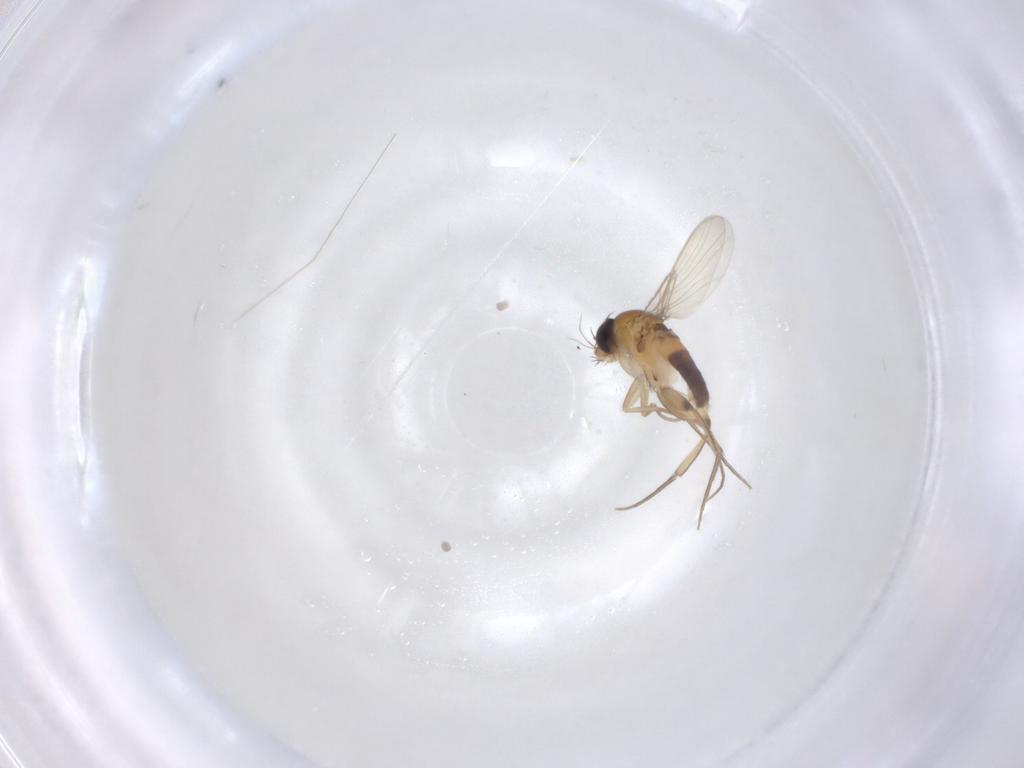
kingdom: Animalia
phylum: Arthropoda
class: Insecta
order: Diptera
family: Phoridae
